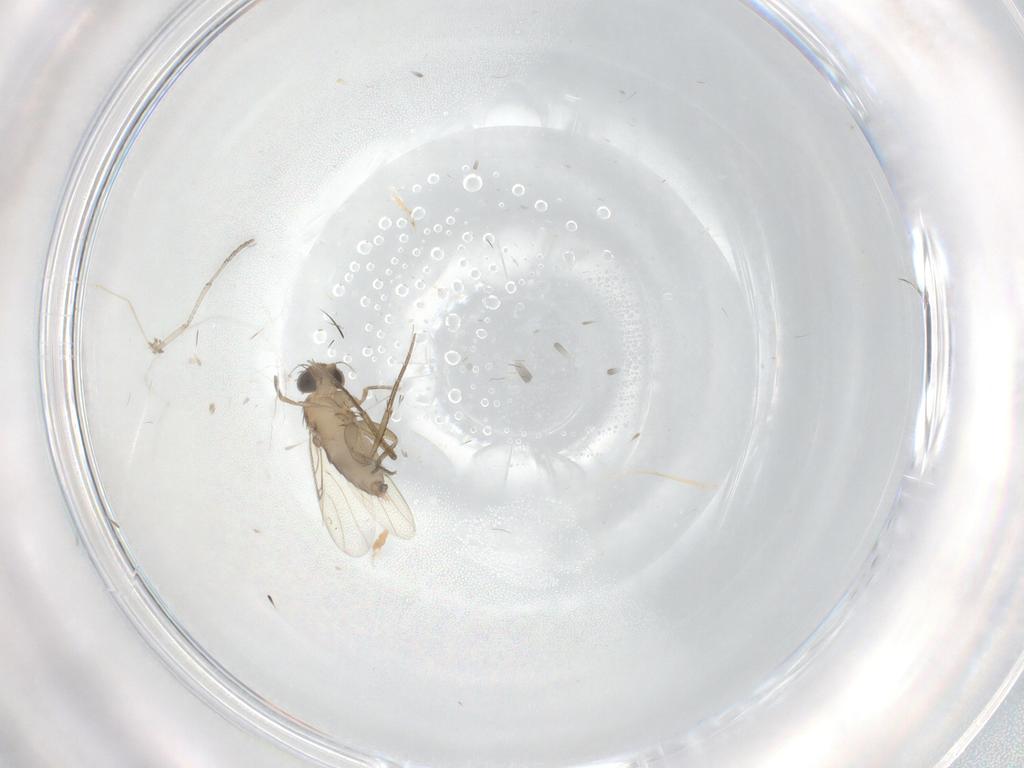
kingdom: Animalia
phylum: Arthropoda
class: Insecta
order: Diptera
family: Phoridae
